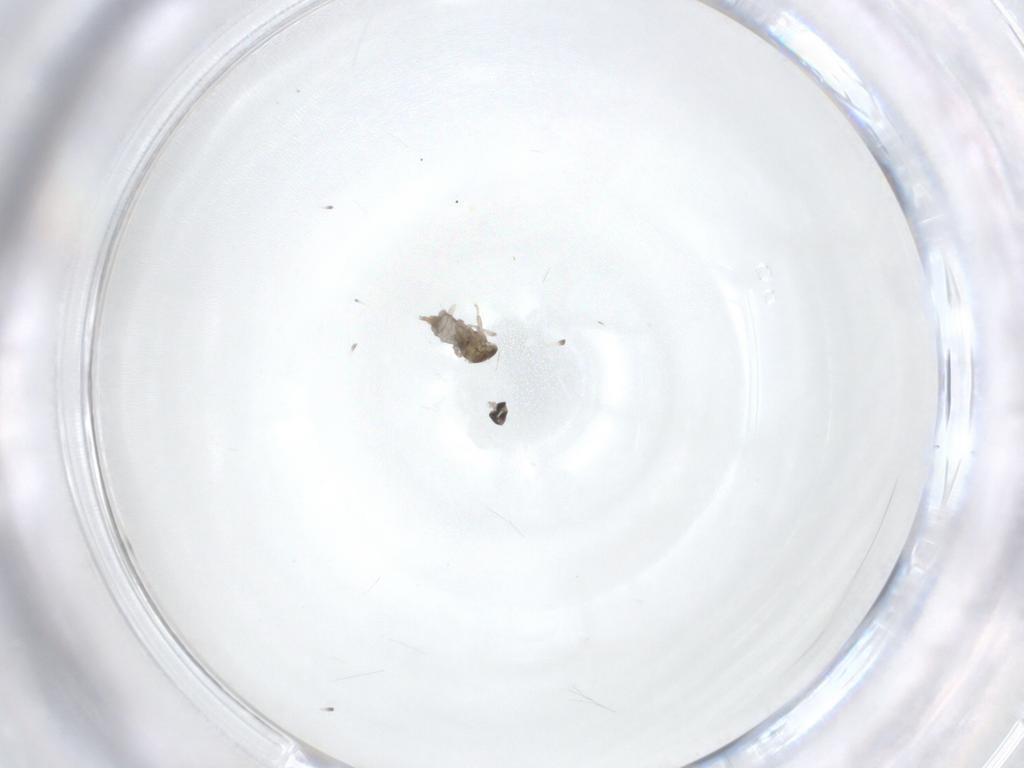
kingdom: Animalia
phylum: Arthropoda
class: Insecta
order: Diptera
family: Cecidomyiidae
